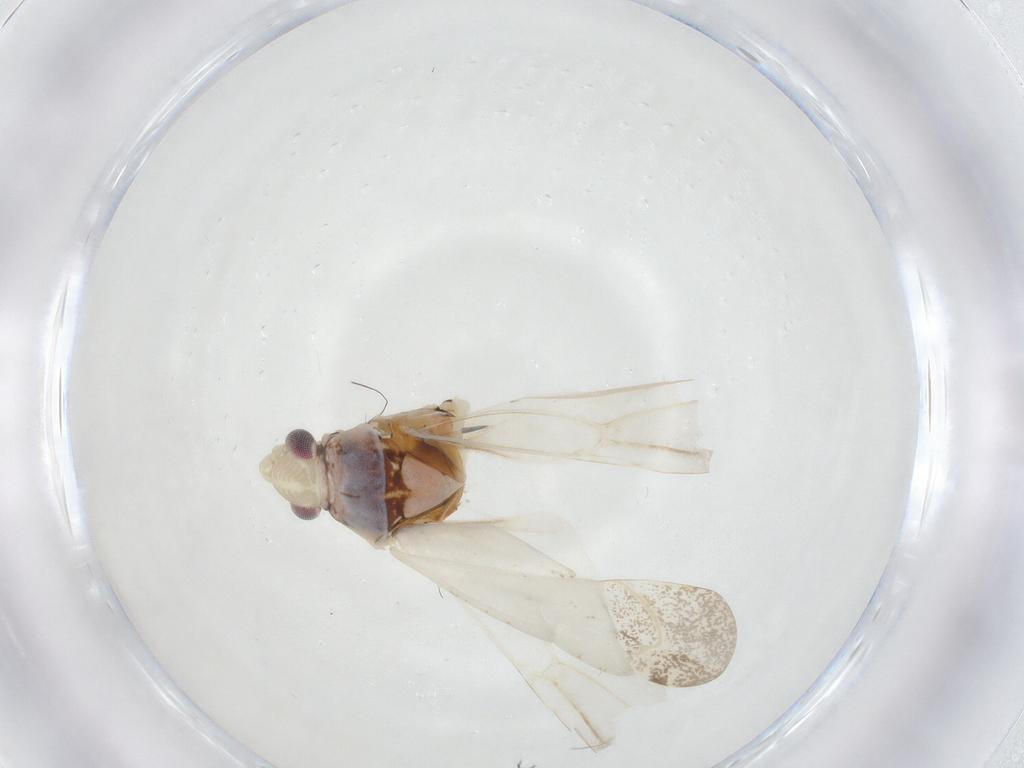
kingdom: Animalia
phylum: Arthropoda
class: Insecta
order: Hemiptera
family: Miridae
